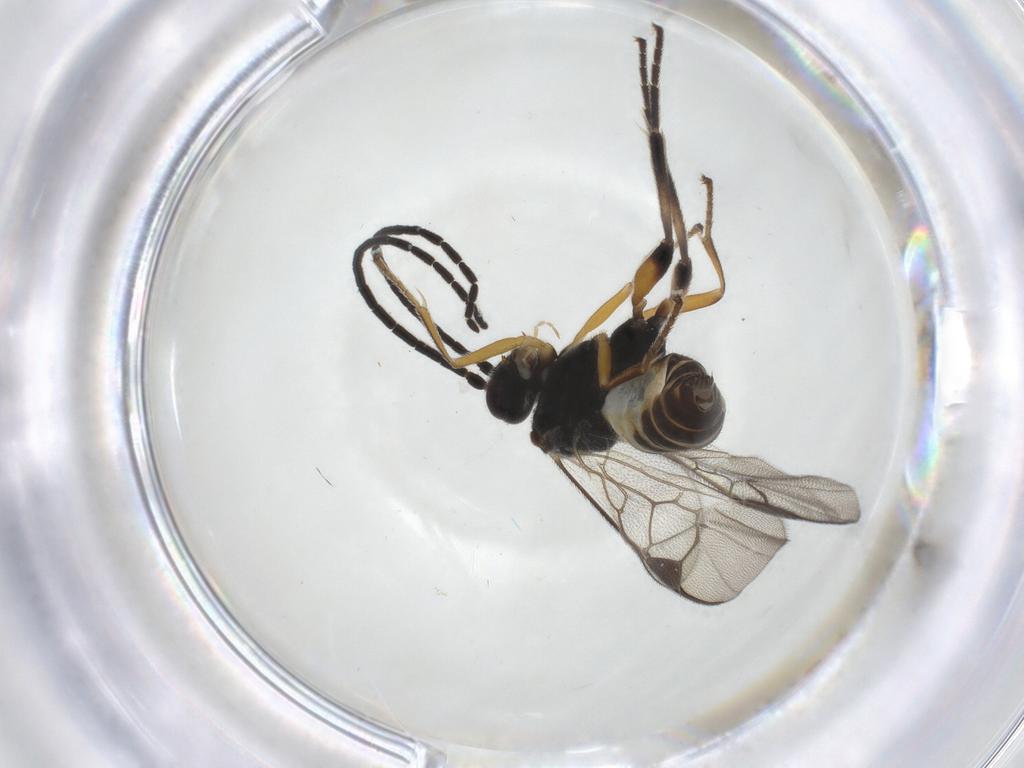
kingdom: Animalia
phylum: Arthropoda
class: Insecta
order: Hymenoptera
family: Braconidae
